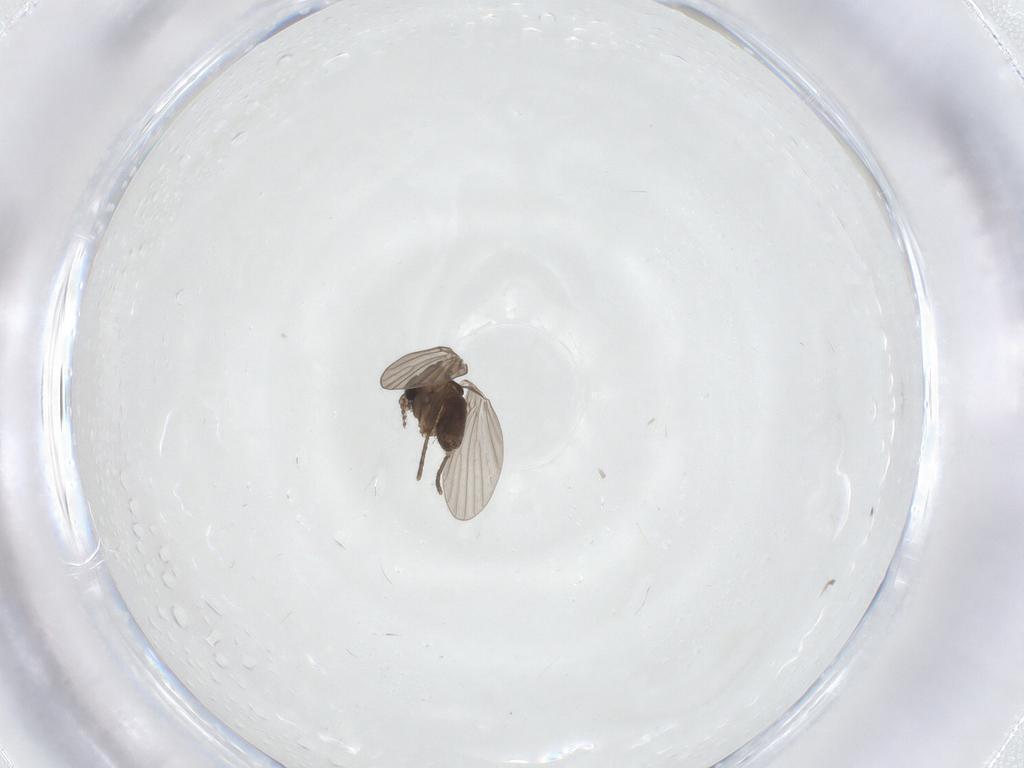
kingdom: Animalia
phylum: Arthropoda
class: Insecta
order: Diptera
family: Psychodidae
